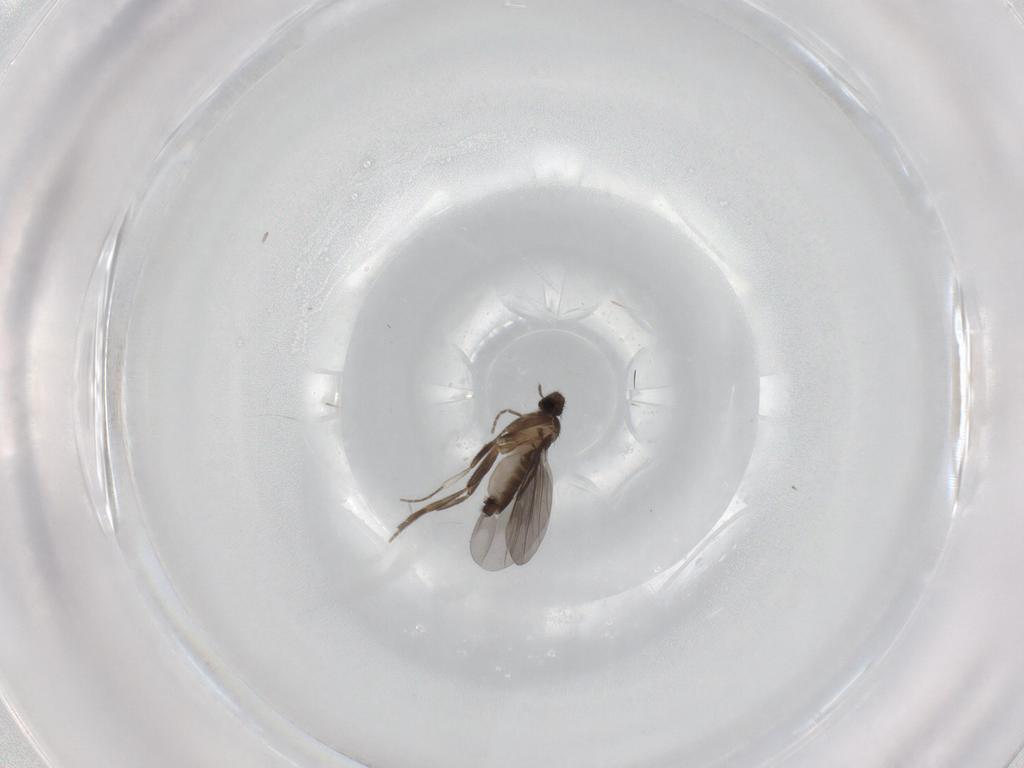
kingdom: Animalia
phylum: Arthropoda
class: Insecta
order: Diptera
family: Phoridae
